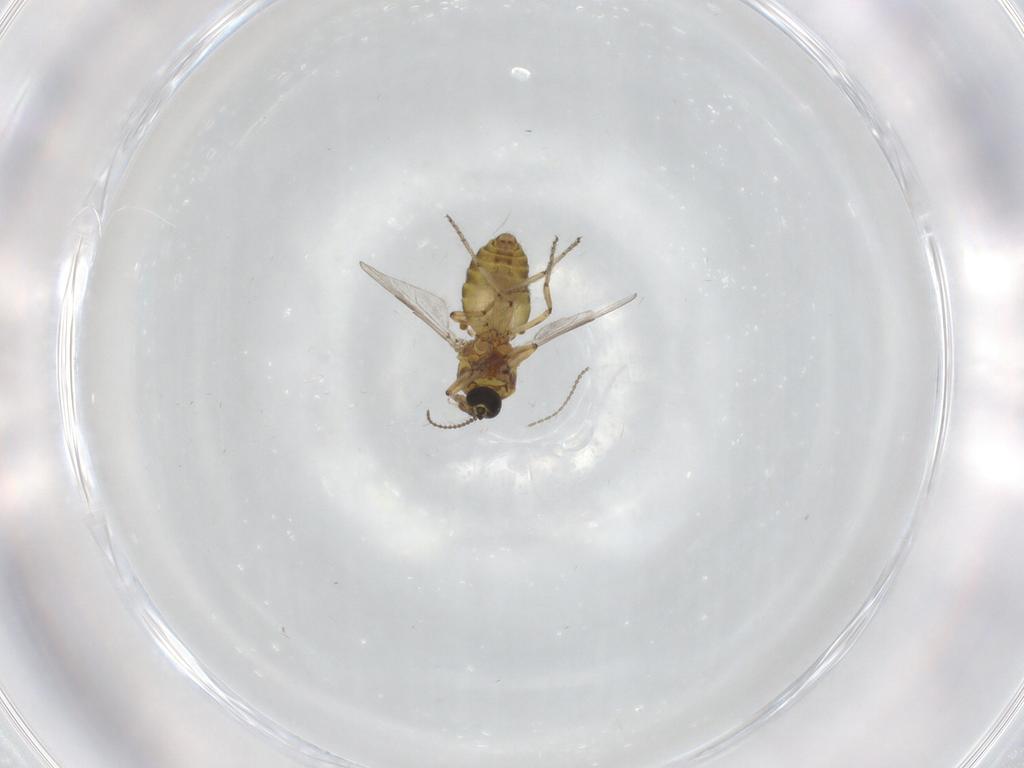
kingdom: Animalia
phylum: Arthropoda
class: Insecta
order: Diptera
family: Ceratopogonidae
